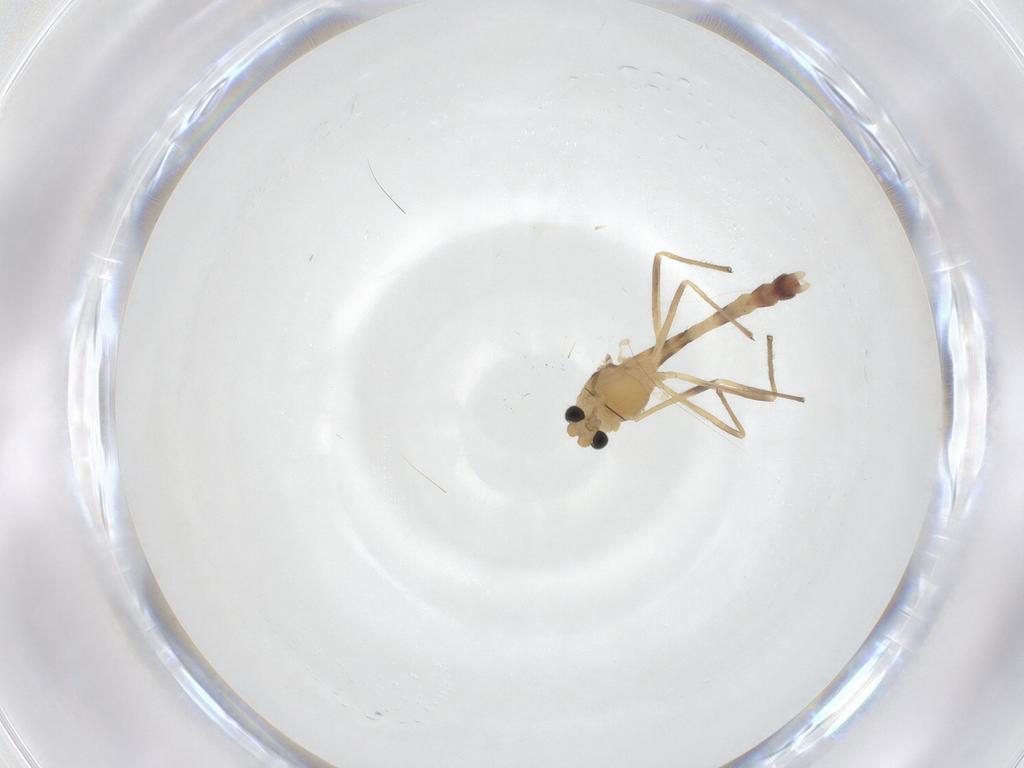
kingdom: Animalia
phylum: Arthropoda
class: Insecta
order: Diptera
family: Chironomidae
